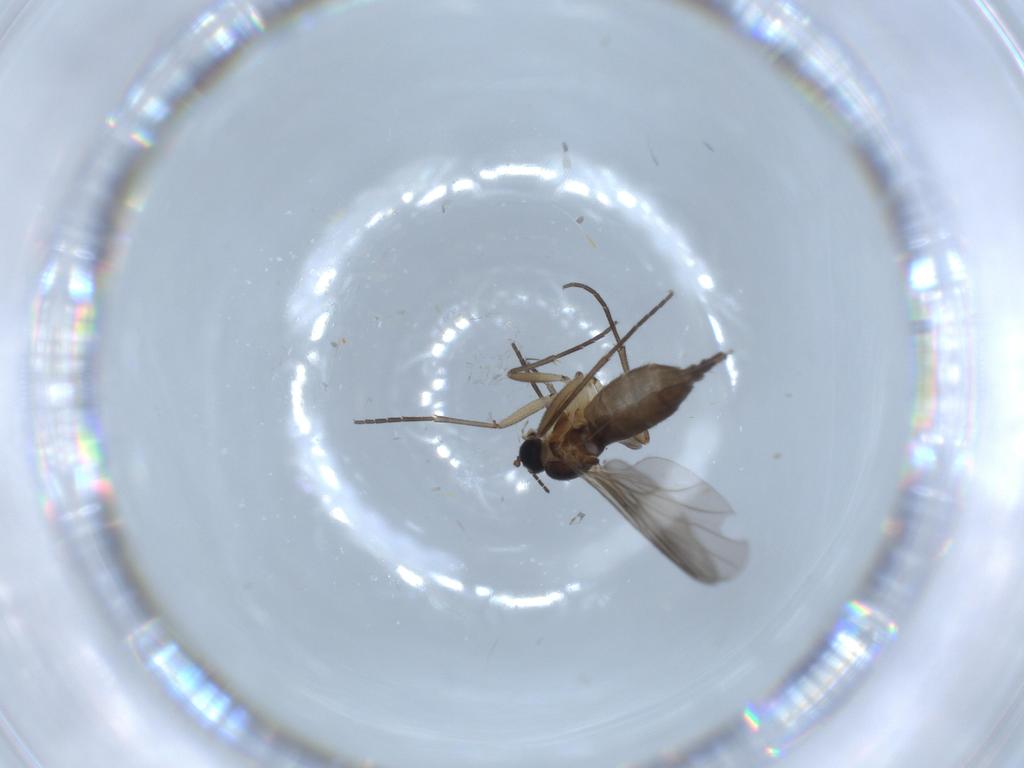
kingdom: Animalia
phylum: Arthropoda
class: Insecta
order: Diptera
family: Sciaridae
